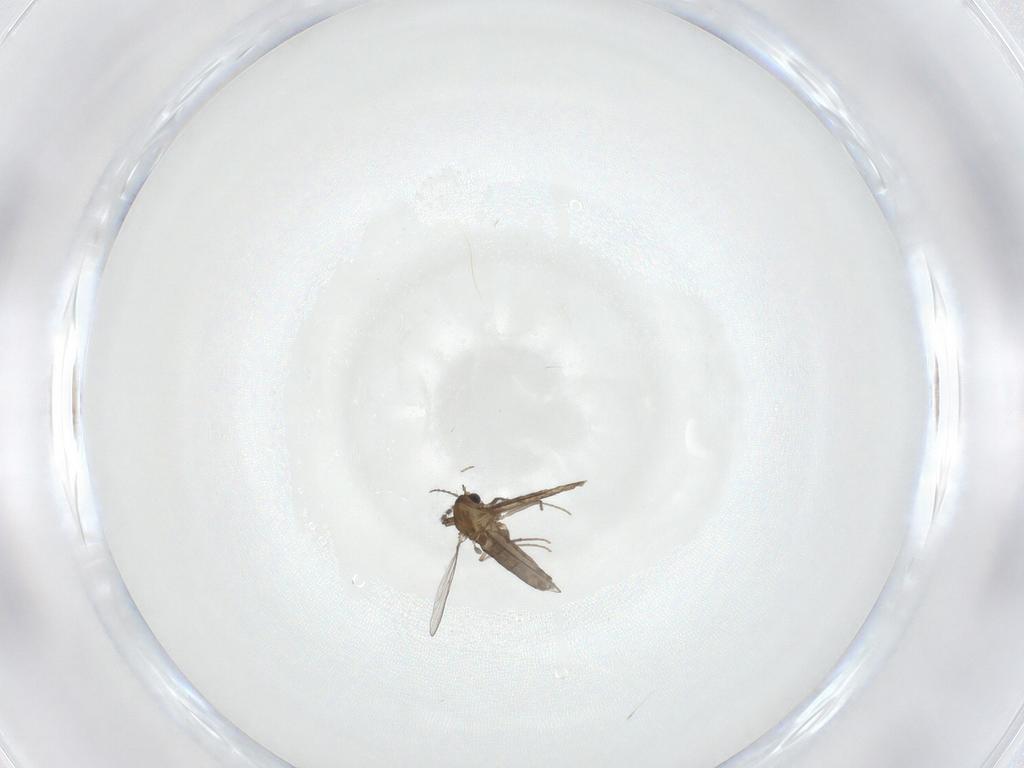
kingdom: Animalia
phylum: Arthropoda
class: Insecta
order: Diptera
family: Chironomidae
